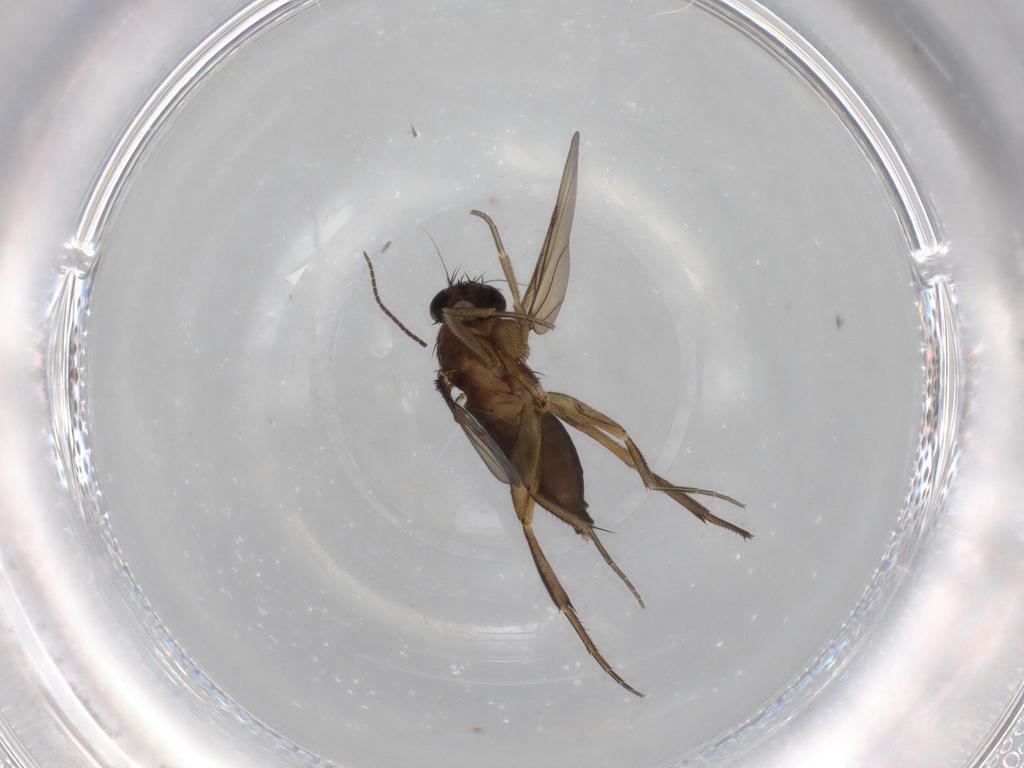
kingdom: Animalia
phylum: Arthropoda
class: Insecta
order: Diptera
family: Phoridae
